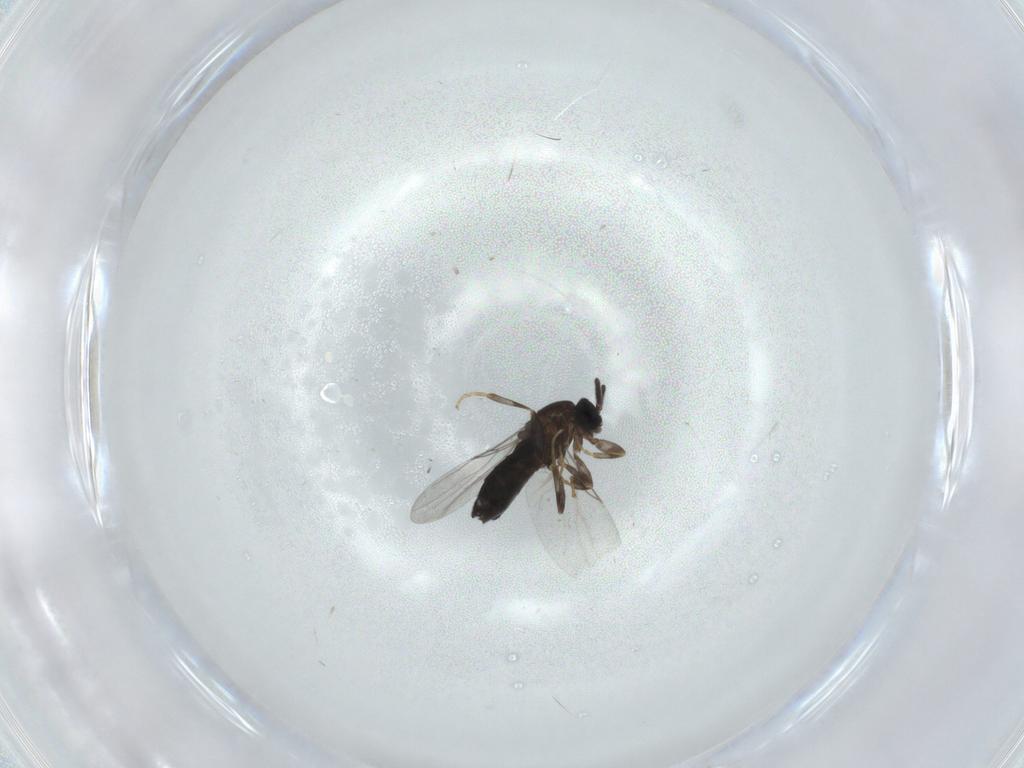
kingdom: Animalia
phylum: Arthropoda
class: Insecta
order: Diptera
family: Scatopsidae
